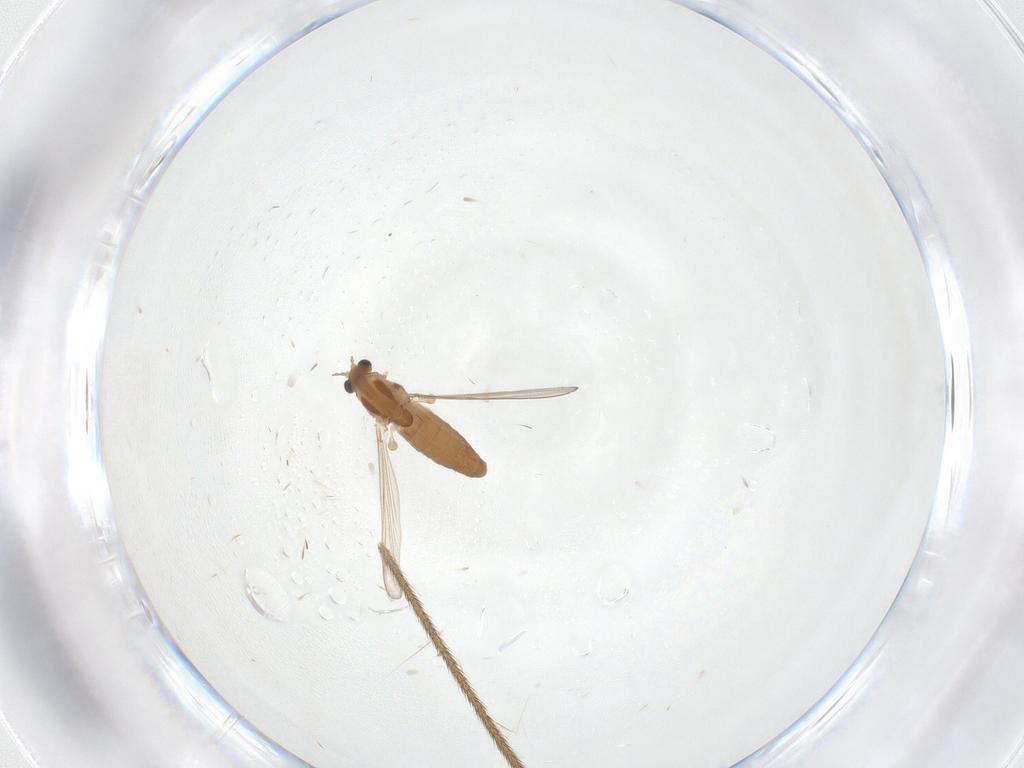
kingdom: Animalia
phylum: Arthropoda
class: Insecta
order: Diptera
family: Chironomidae
